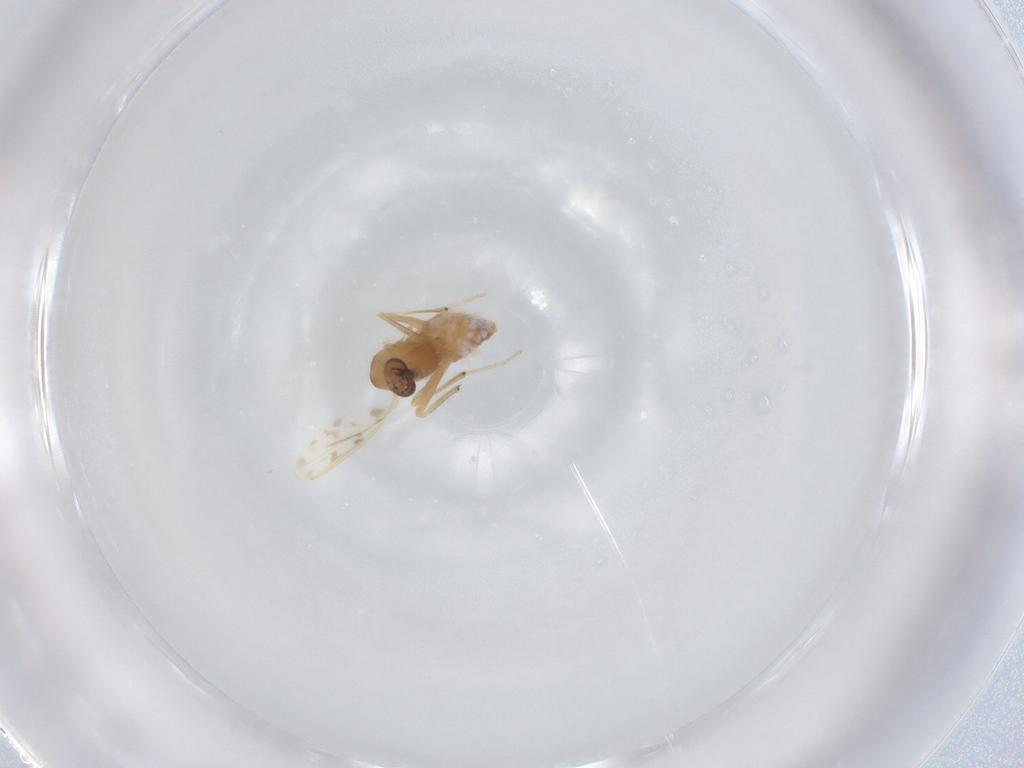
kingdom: Animalia
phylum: Arthropoda
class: Insecta
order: Diptera
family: Chironomidae
